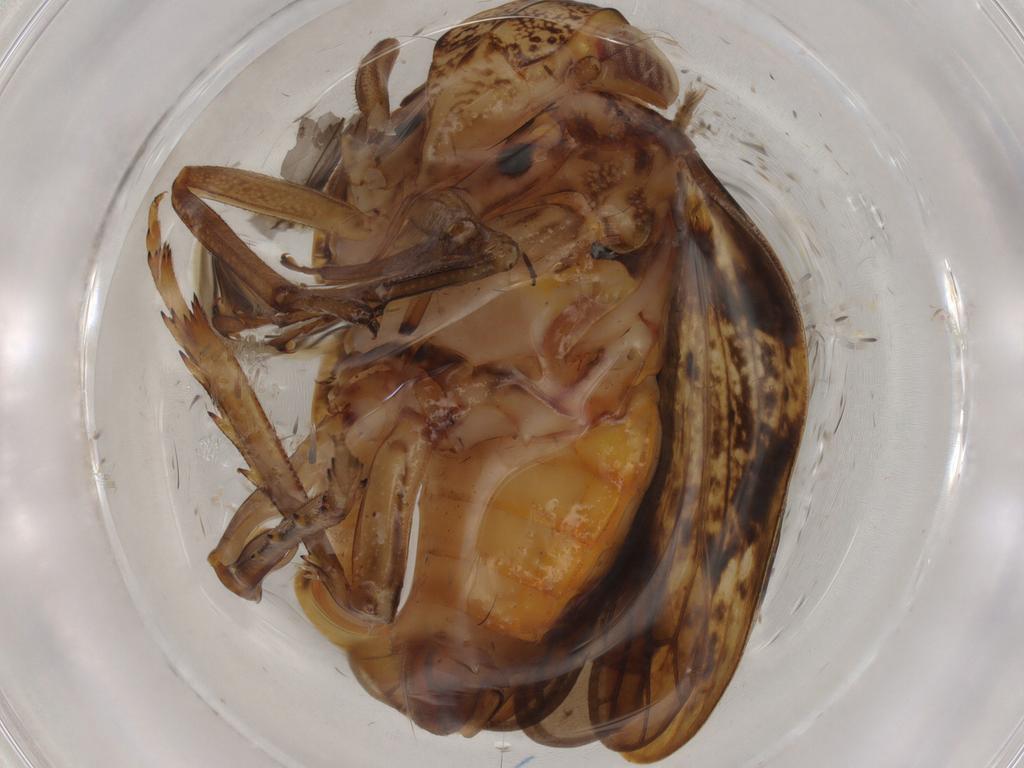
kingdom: Animalia
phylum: Arthropoda
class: Insecta
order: Hemiptera
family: Issidae
